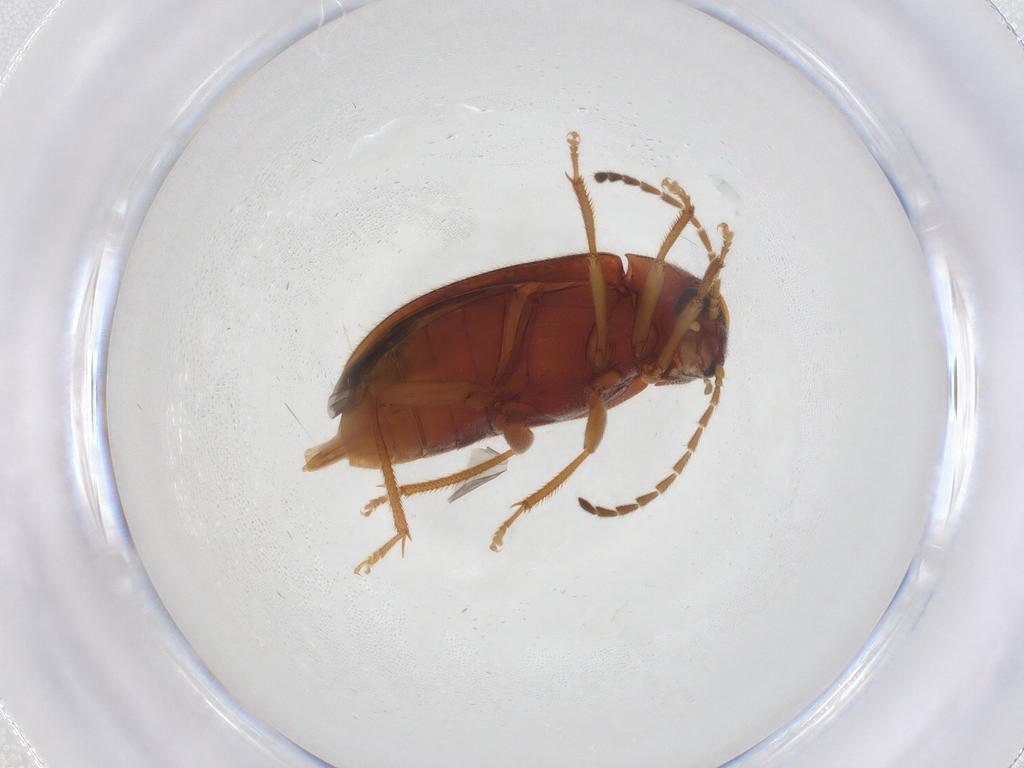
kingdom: Animalia
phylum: Arthropoda
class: Insecta
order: Coleoptera
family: Ptilodactylidae
